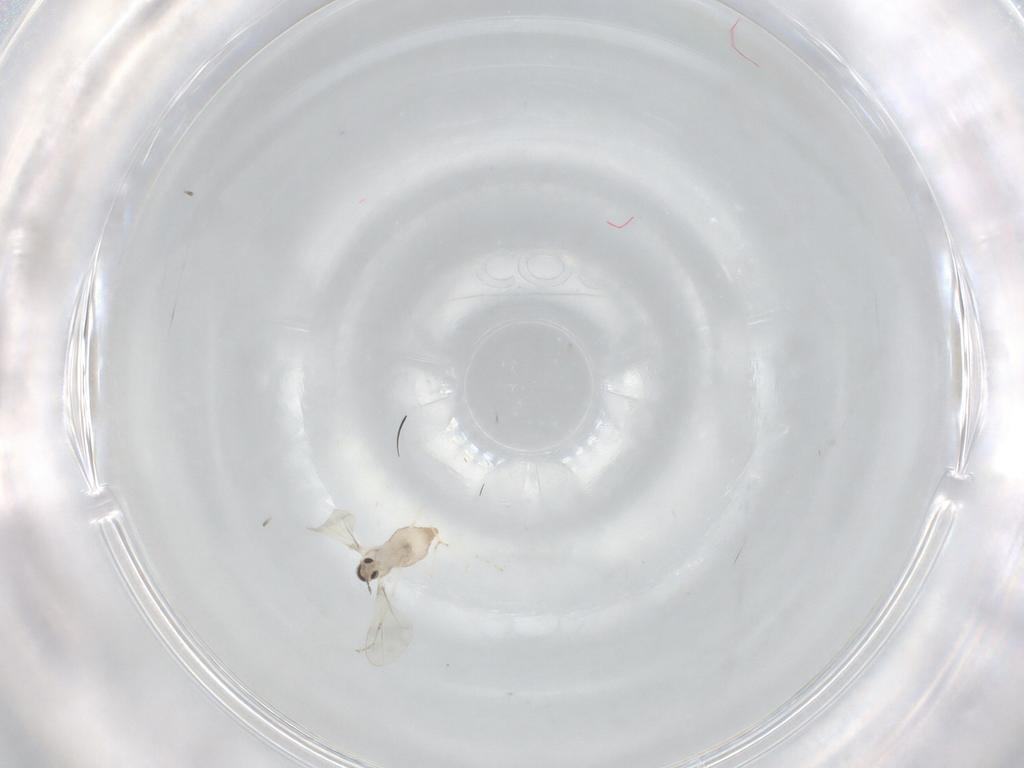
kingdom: Animalia
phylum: Arthropoda
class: Insecta
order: Diptera
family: Cecidomyiidae
